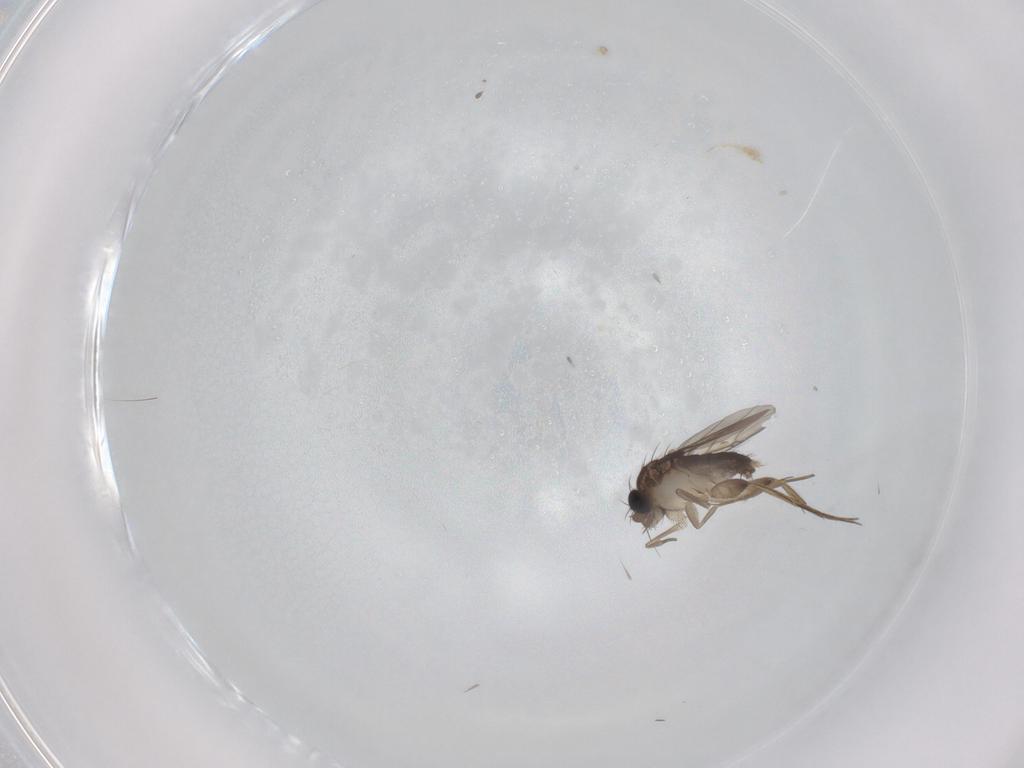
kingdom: Animalia
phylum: Arthropoda
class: Insecta
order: Diptera
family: Phoridae
